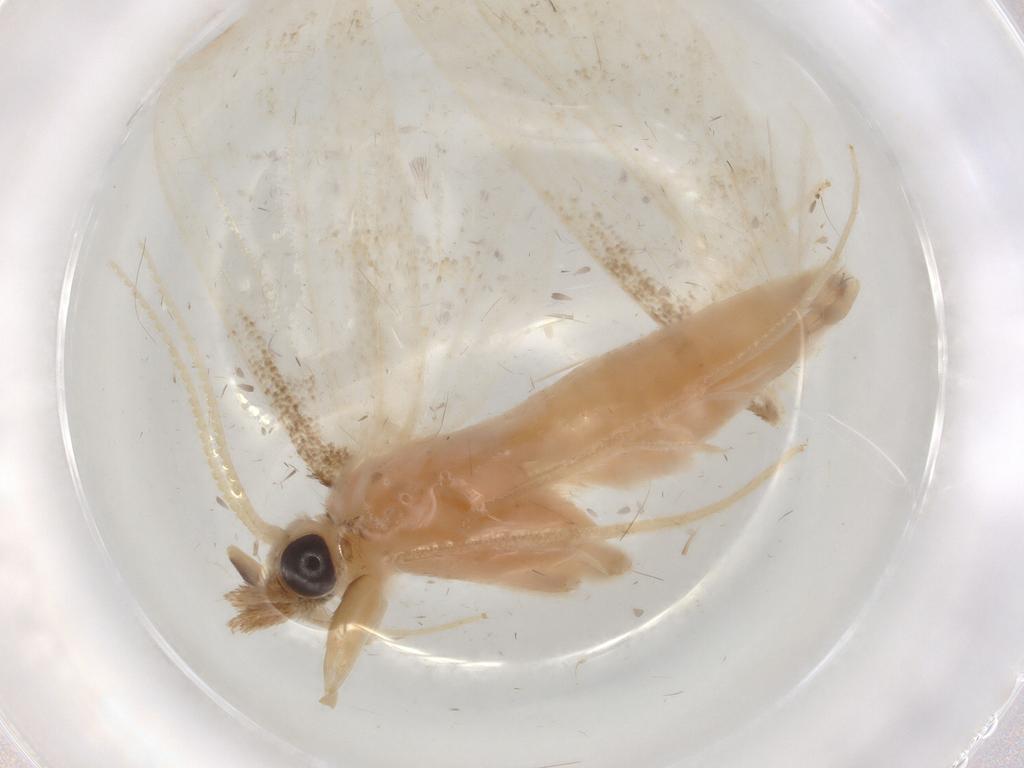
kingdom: Animalia
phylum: Arthropoda
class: Insecta
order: Lepidoptera
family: Crambidae
